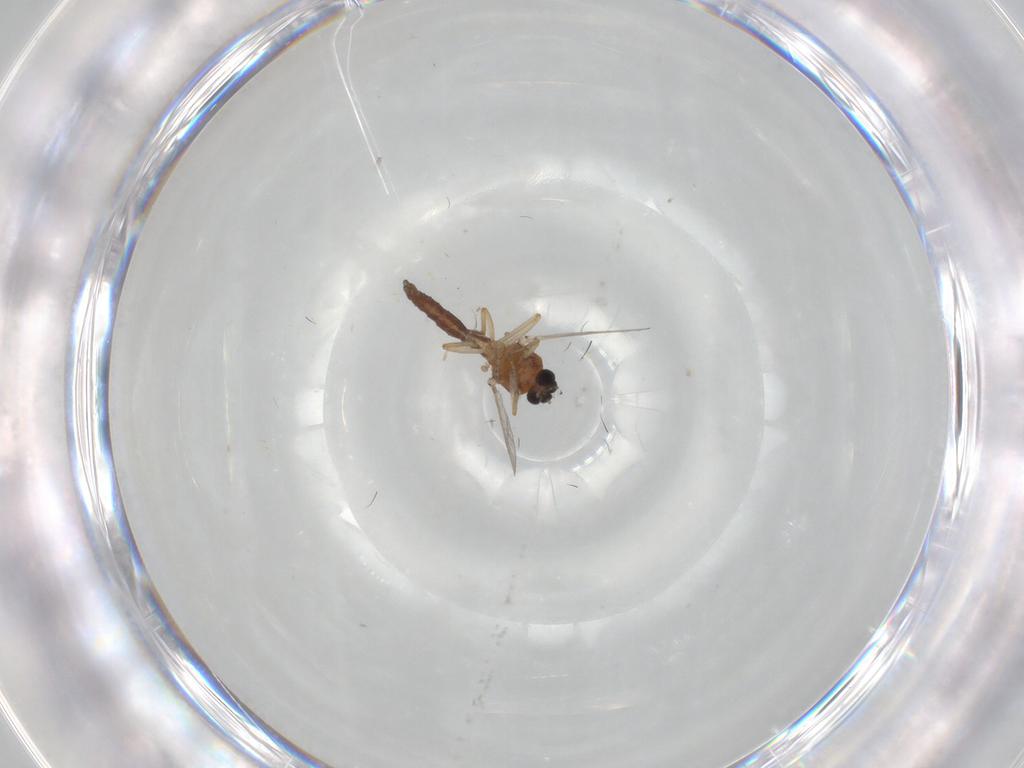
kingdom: Animalia
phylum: Arthropoda
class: Insecta
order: Diptera
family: Ceratopogonidae
